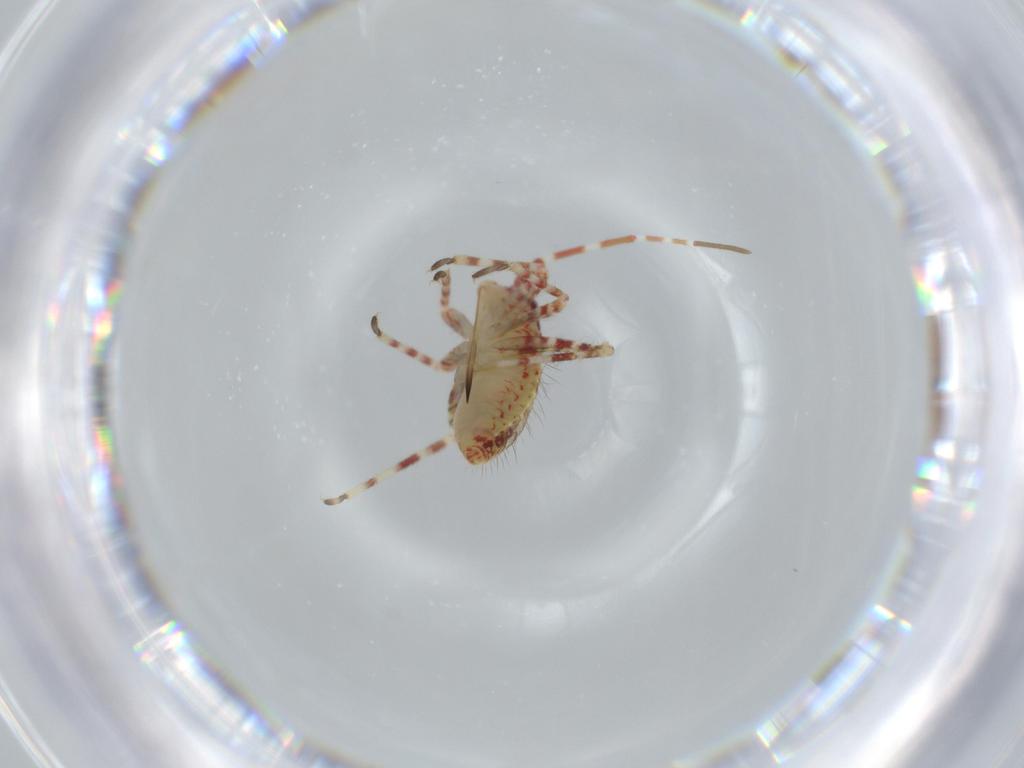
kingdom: Animalia
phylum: Arthropoda
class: Insecta
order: Hemiptera
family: Miridae
